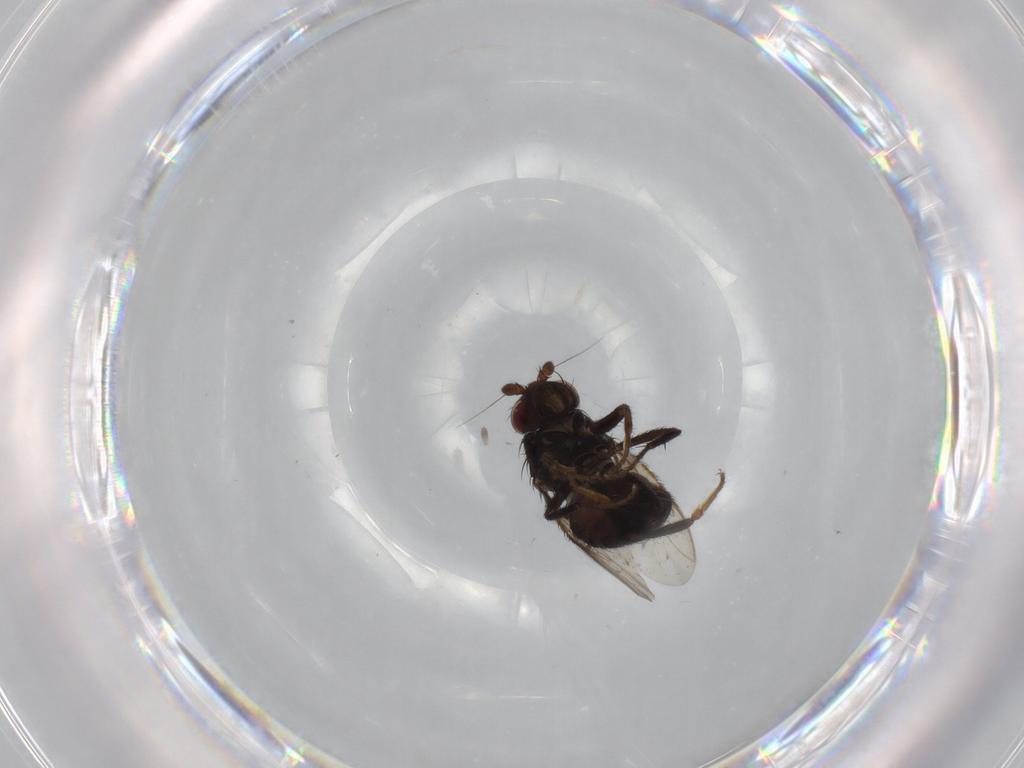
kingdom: Animalia
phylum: Arthropoda
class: Insecta
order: Diptera
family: Sphaeroceridae
